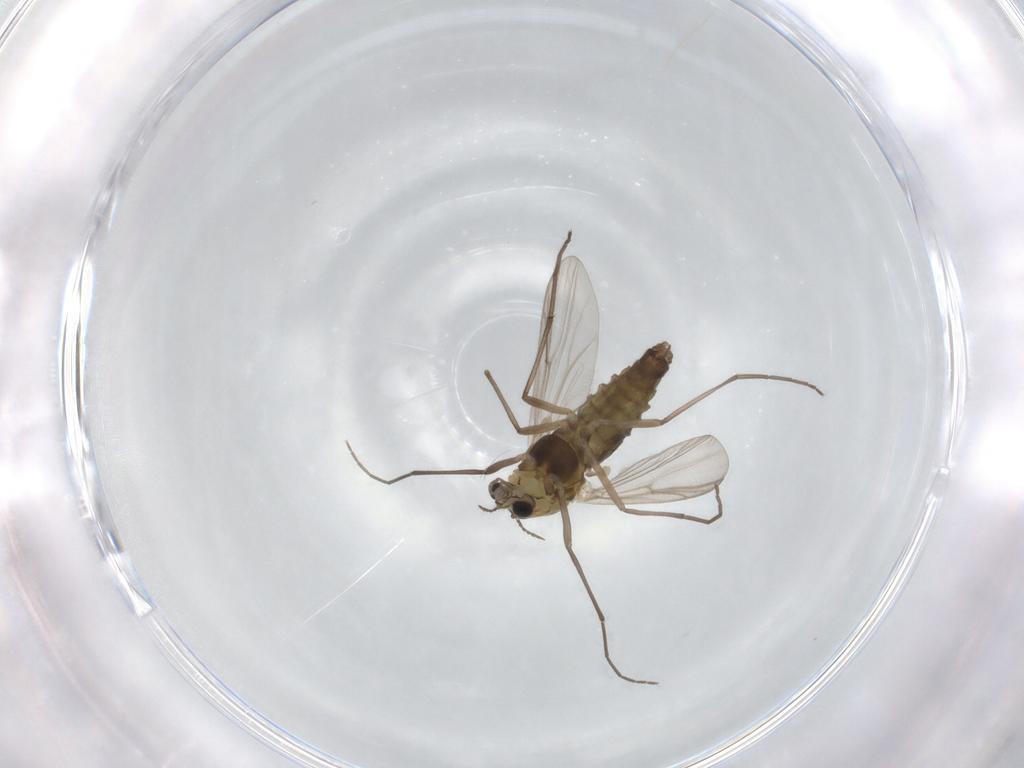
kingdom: Animalia
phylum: Arthropoda
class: Insecta
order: Diptera
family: Chironomidae
